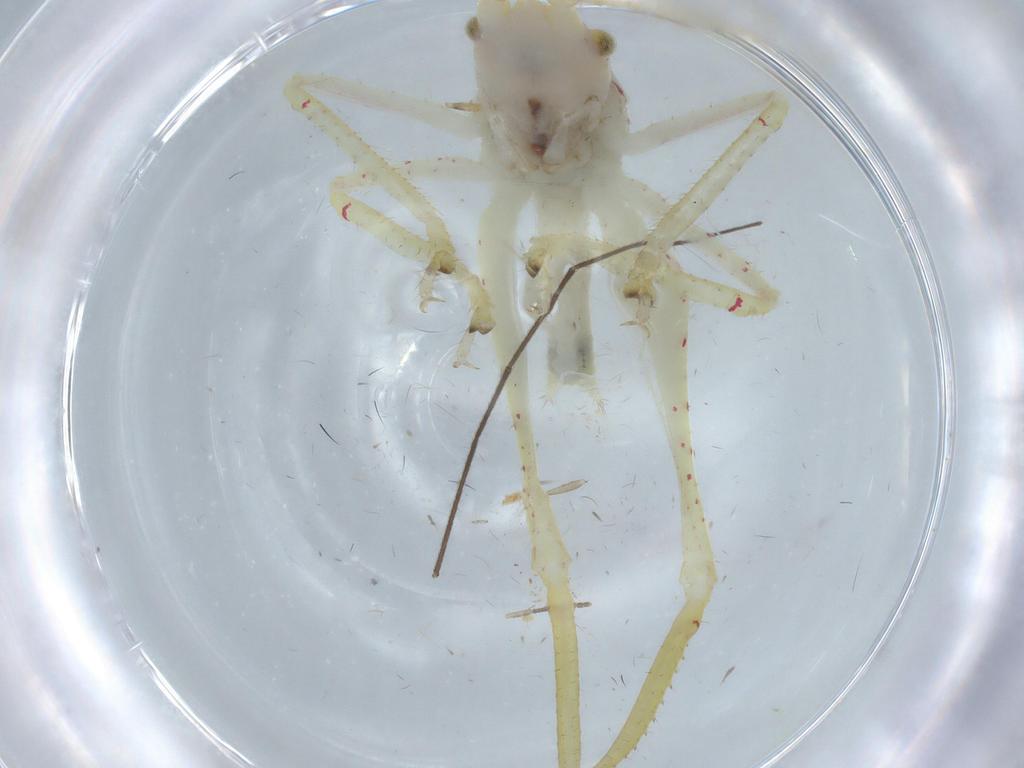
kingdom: Animalia
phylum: Arthropoda
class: Insecta
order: Orthoptera
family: Tettigoniidae
